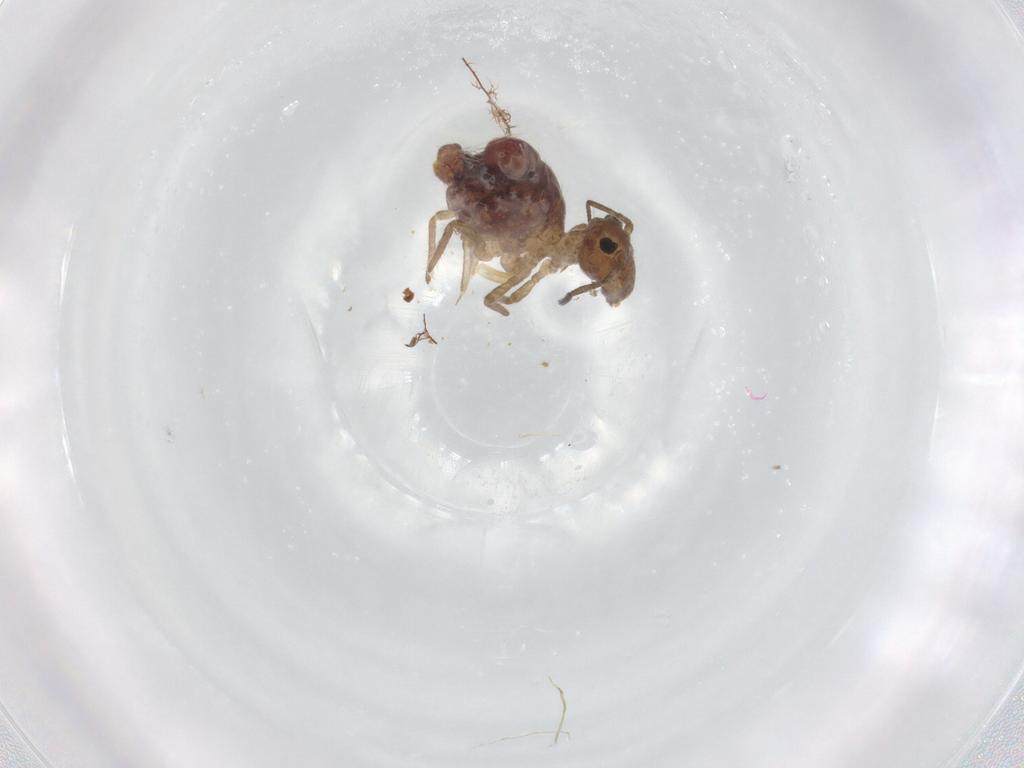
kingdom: Animalia
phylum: Arthropoda
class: Collembola
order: Symphypleona
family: Sminthuridae
